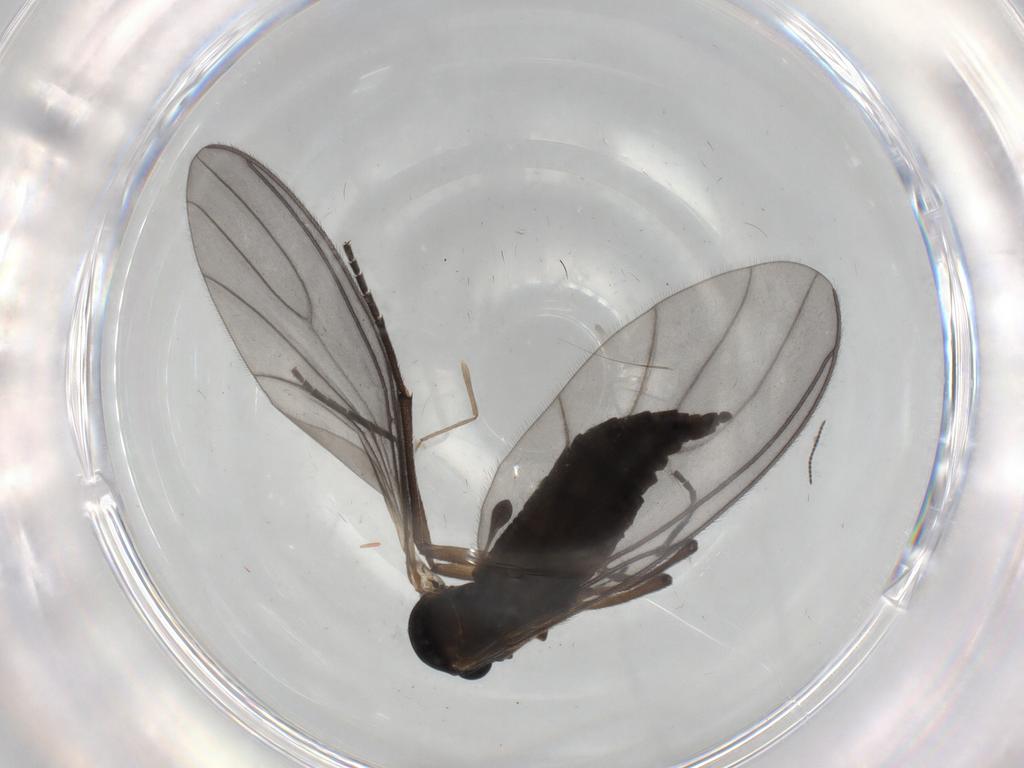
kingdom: Animalia
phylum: Arthropoda
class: Insecta
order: Diptera
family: Sciaridae
